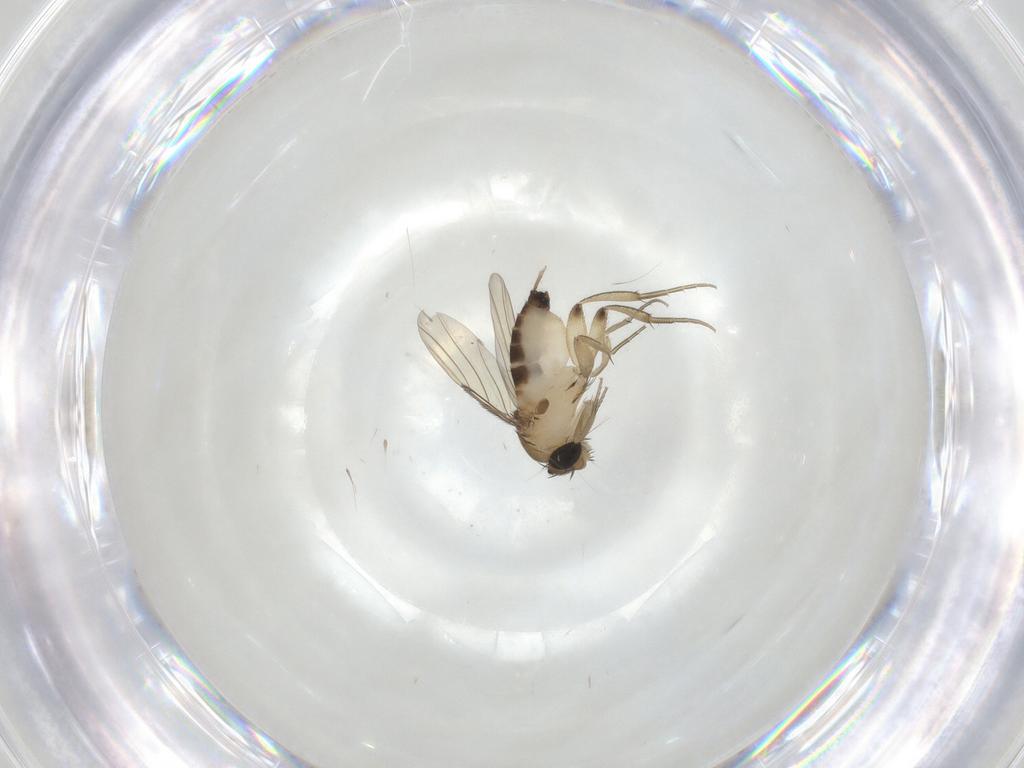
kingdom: Animalia
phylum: Arthropoda
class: Insecta
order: Diptera
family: Phoridae
